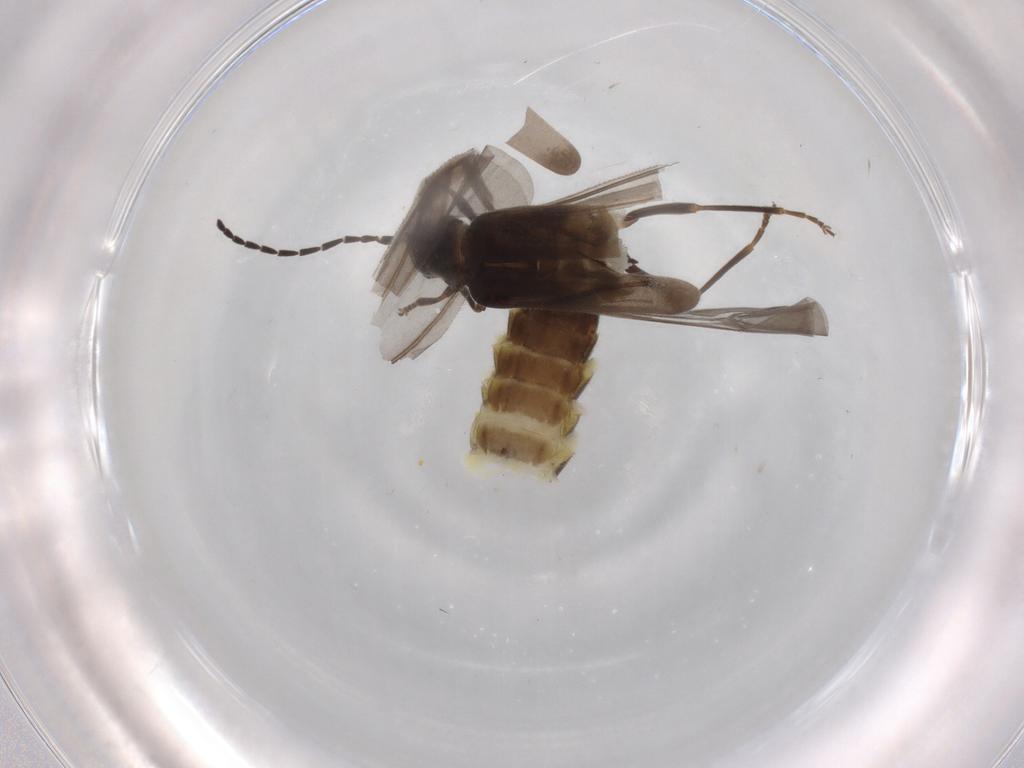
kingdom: Animalia
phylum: Arthropoda
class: Insecta
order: Coleoptera
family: Cantharidae
